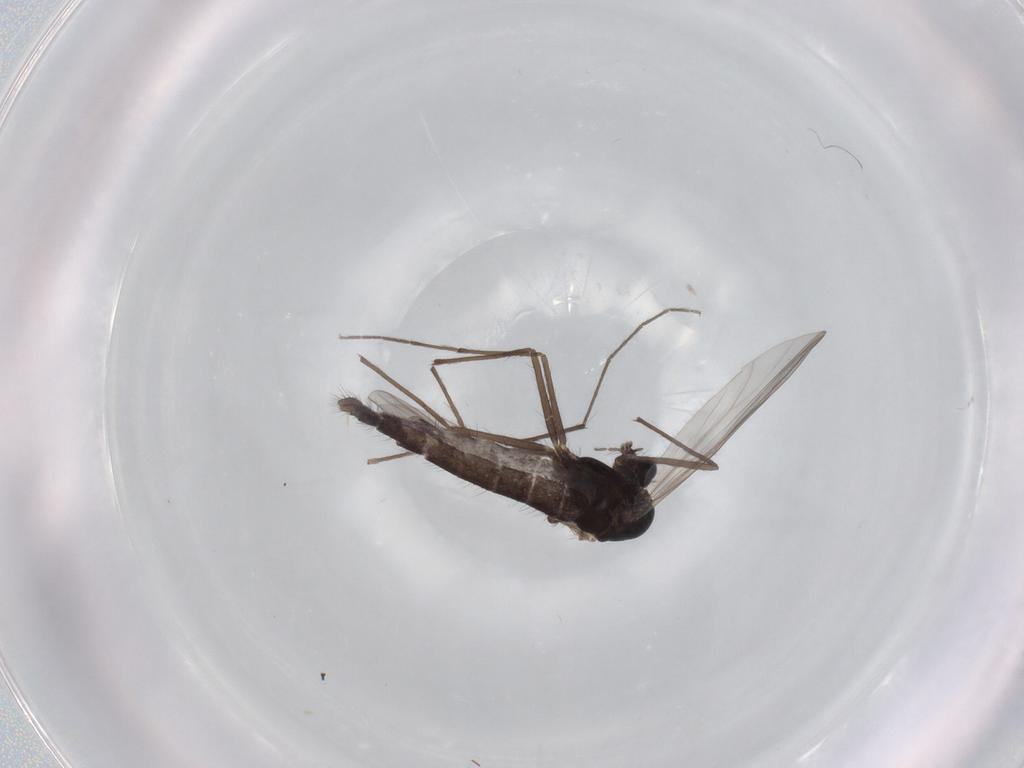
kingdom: Animalia
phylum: Arthropoda
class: Insecta
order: Diptera
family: Chironomidae
